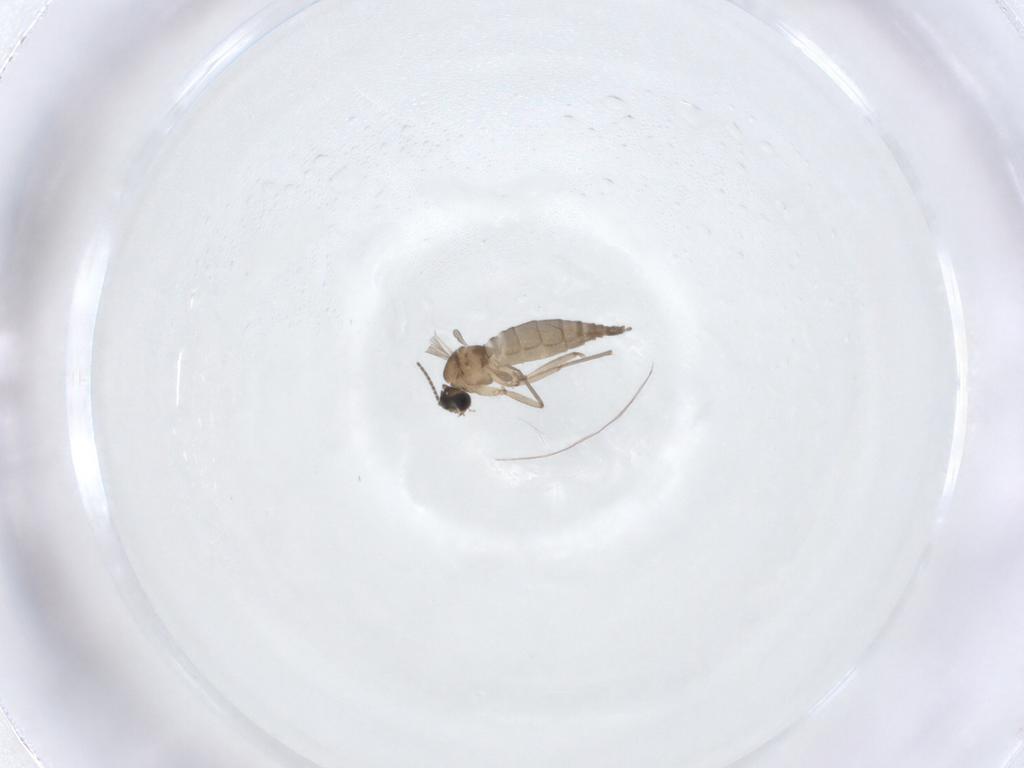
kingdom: Animalia
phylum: Arthropoda
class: Insecta
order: Diptera
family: Sciaridae
